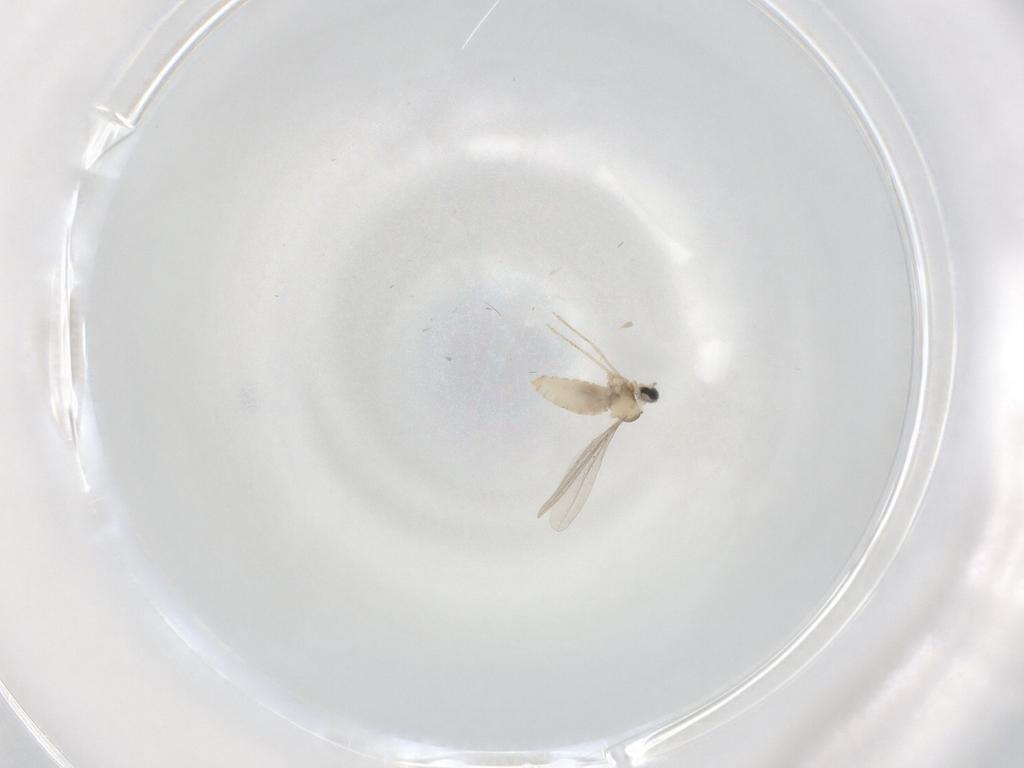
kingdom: Animalia
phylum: Arthropoda
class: Insecta
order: Diptera
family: Cecidomyiidae
